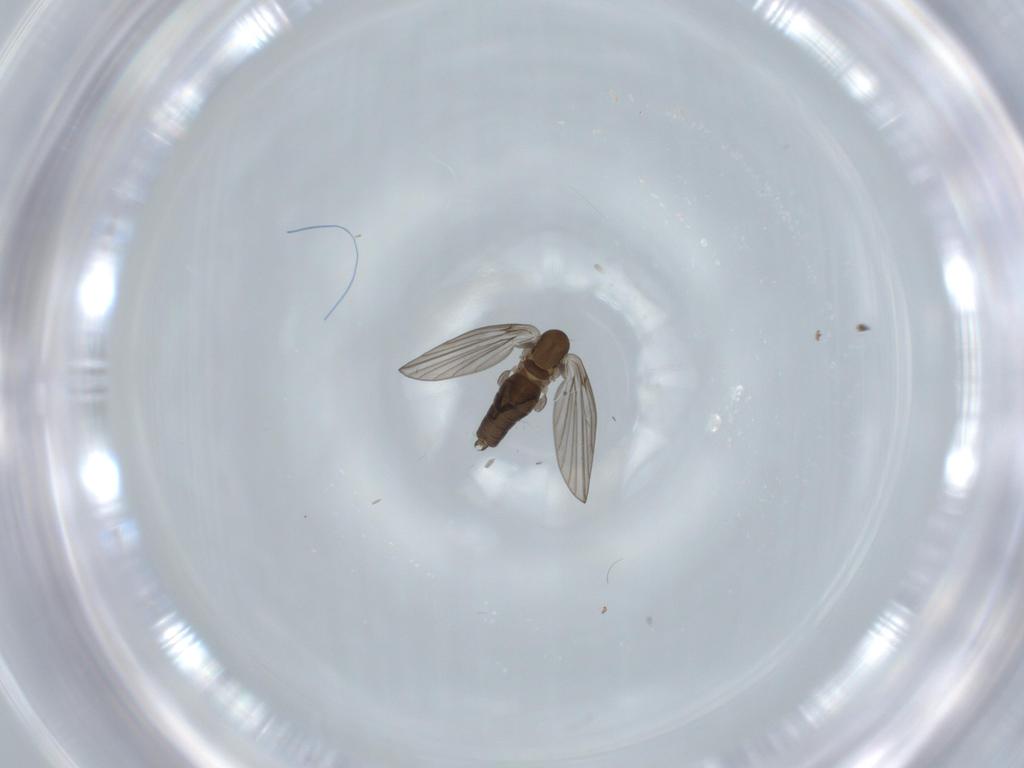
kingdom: Animalia
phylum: Arthropoda
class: Insecta
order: Diptera
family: Psychodidae
